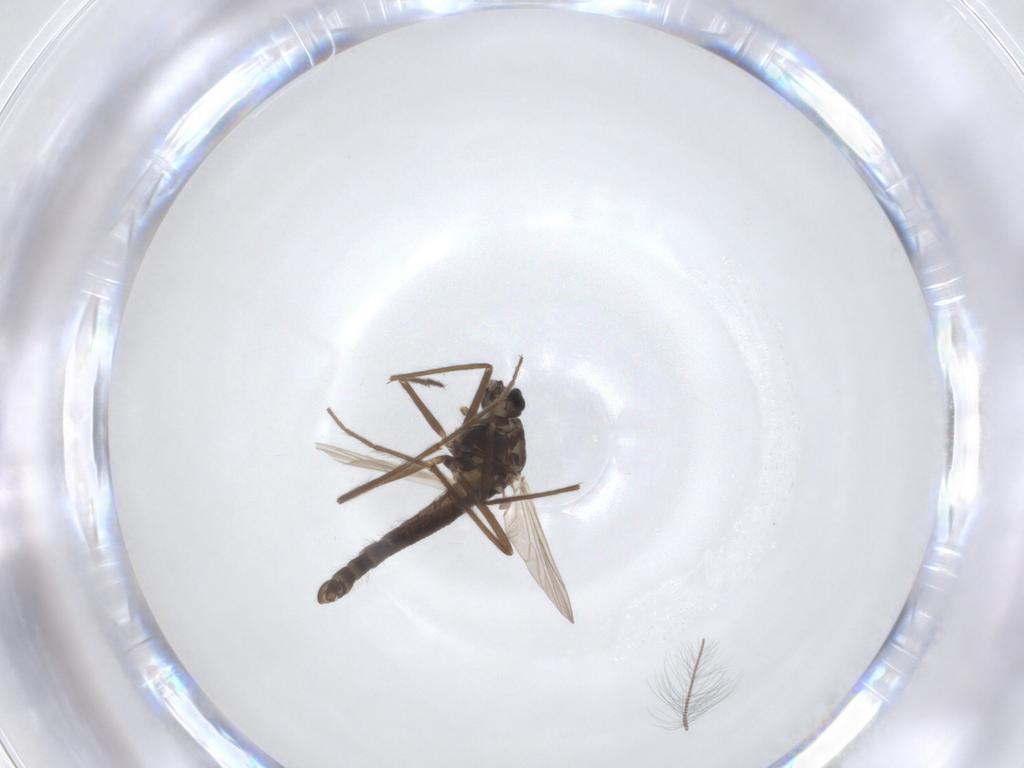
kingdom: Animalia
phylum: Arthropoda
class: Insecta
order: Diptera
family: Chironomidae
